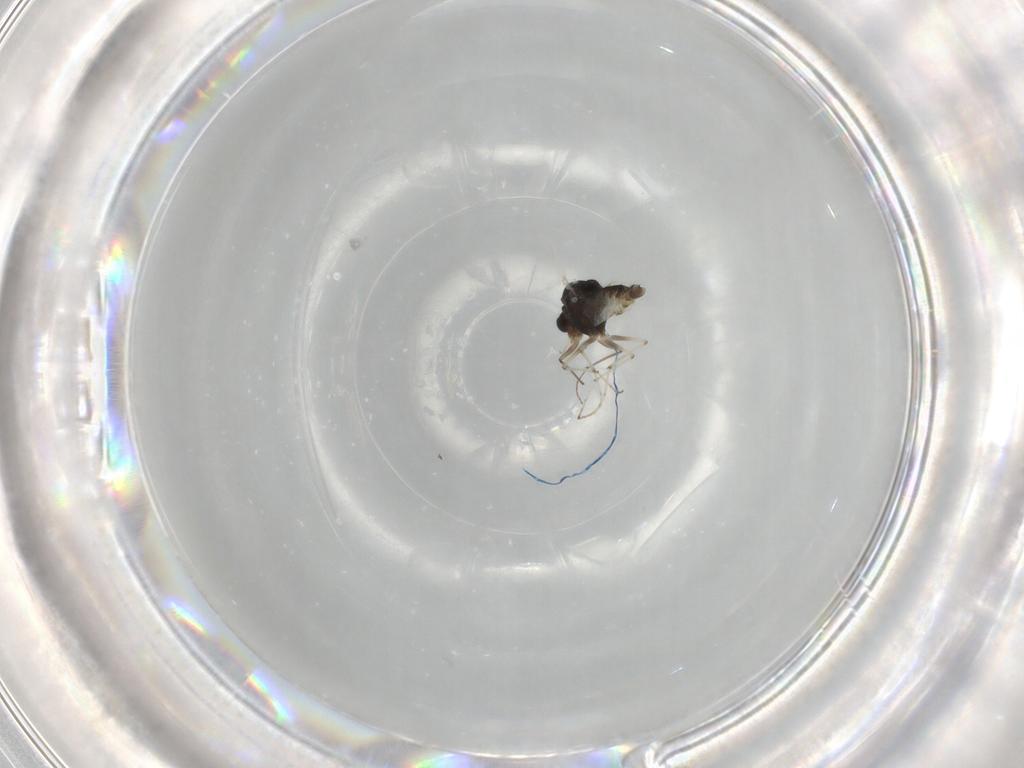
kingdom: Animalia
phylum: Arthropoda
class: Insecta
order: Diptera
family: Chironomidae
